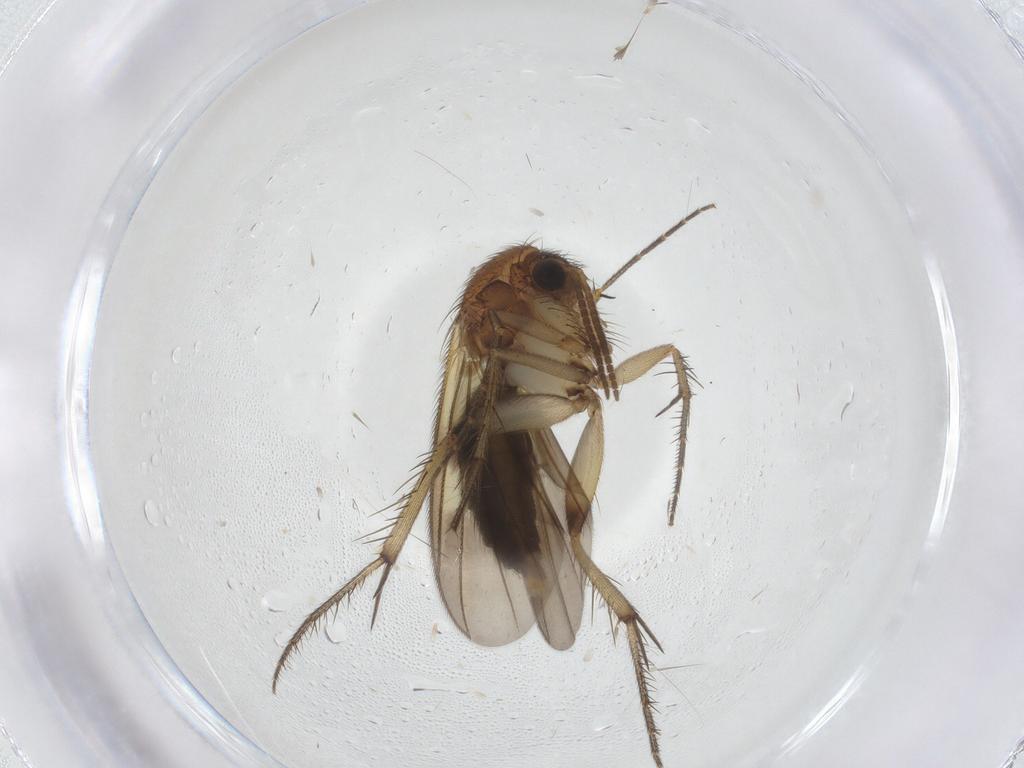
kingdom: Animalia
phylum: Arthropoda
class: Insecta
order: Diptera
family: Mycetophilidae
